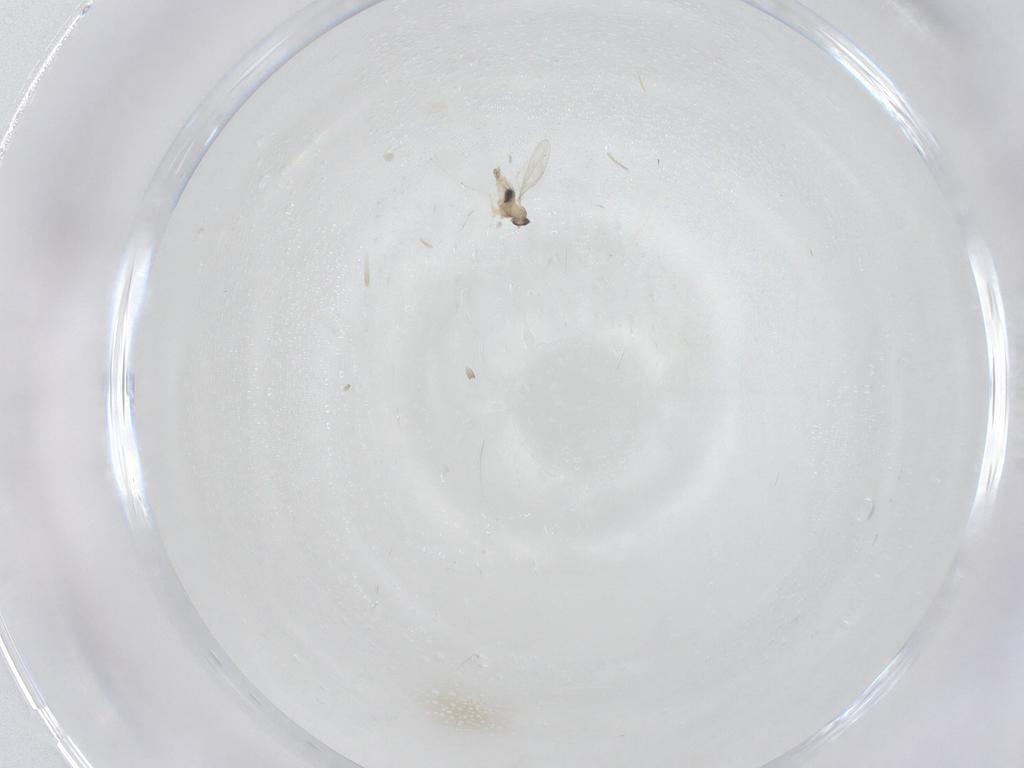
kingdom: Animalia
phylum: Arthropoda
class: Insecta
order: Diptera
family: Cecidomyiidae
